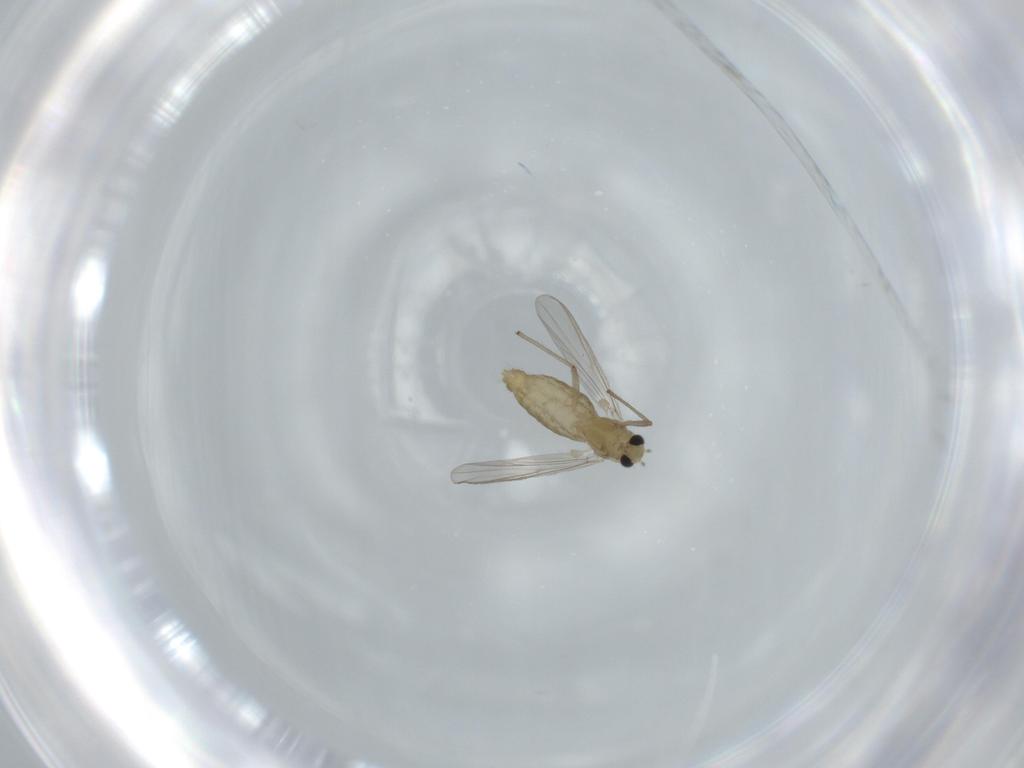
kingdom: Animalia
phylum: Arthropoda
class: Insecta
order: Diptera
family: Chironomidae
